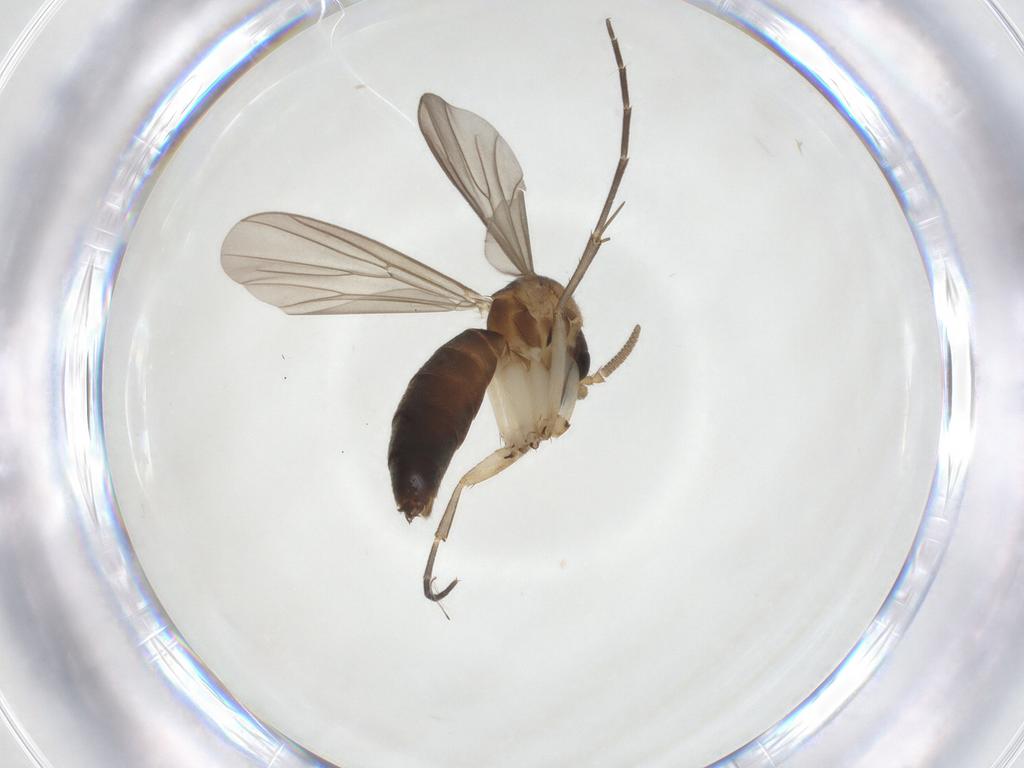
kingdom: Animalia
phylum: Arthropoda
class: Insecta
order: Diptera
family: Mycetophilidae
